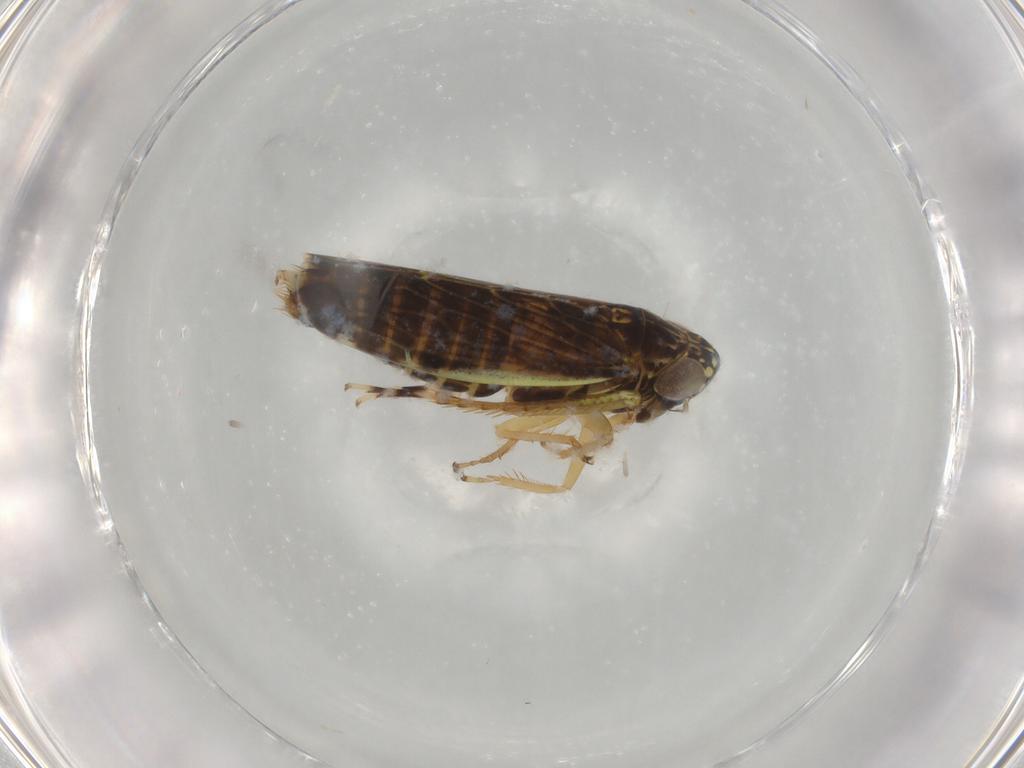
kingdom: Animalia
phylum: Arthropoda
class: Insecta
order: Hemiptera
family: Cicadellidae
